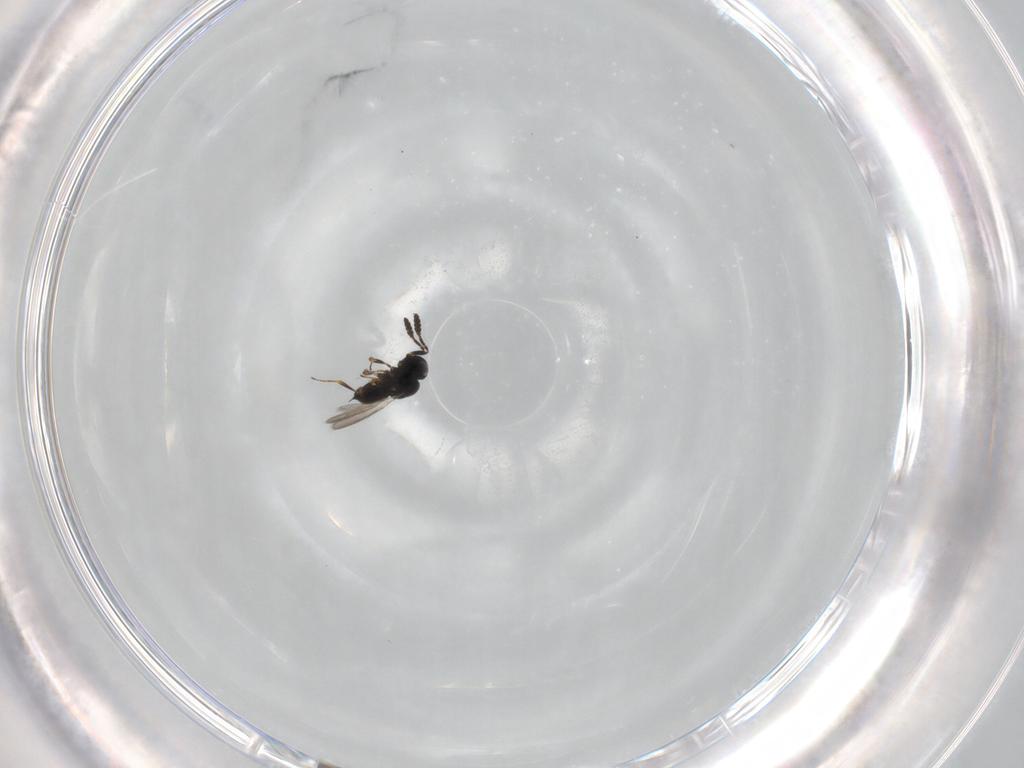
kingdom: Animalia
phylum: Arthropoda
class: Insecta
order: Hymenoptera
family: Scelionidae
